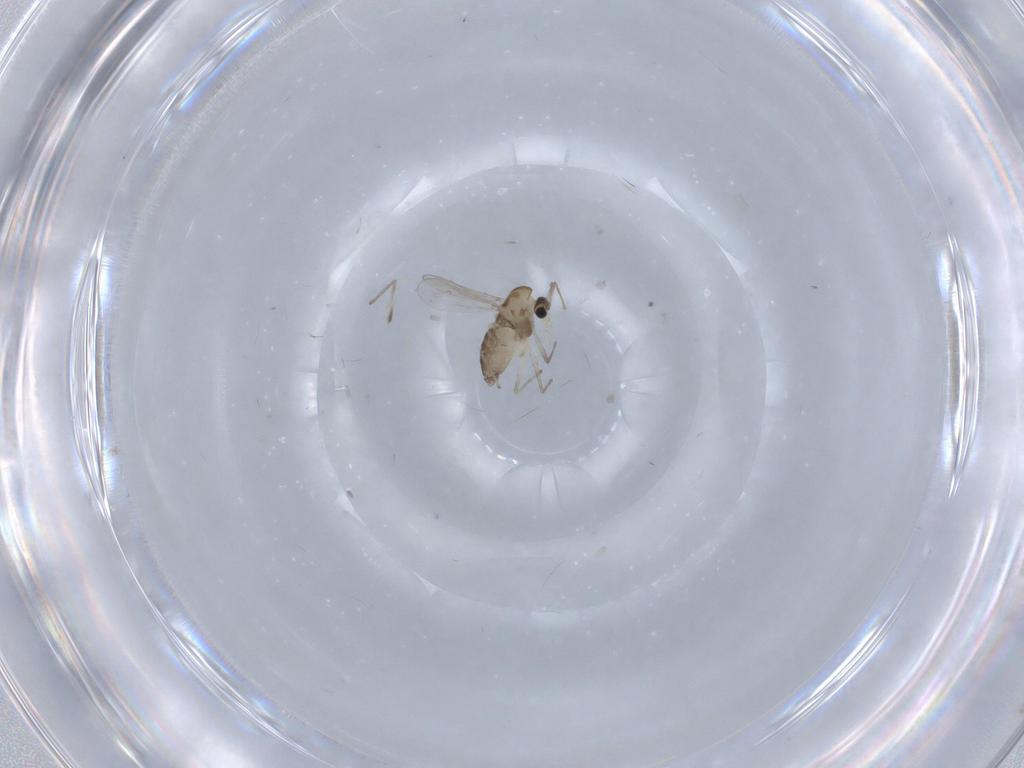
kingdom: Animalia
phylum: Arthropoda
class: Insecta
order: Diptera
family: Chironomidae
